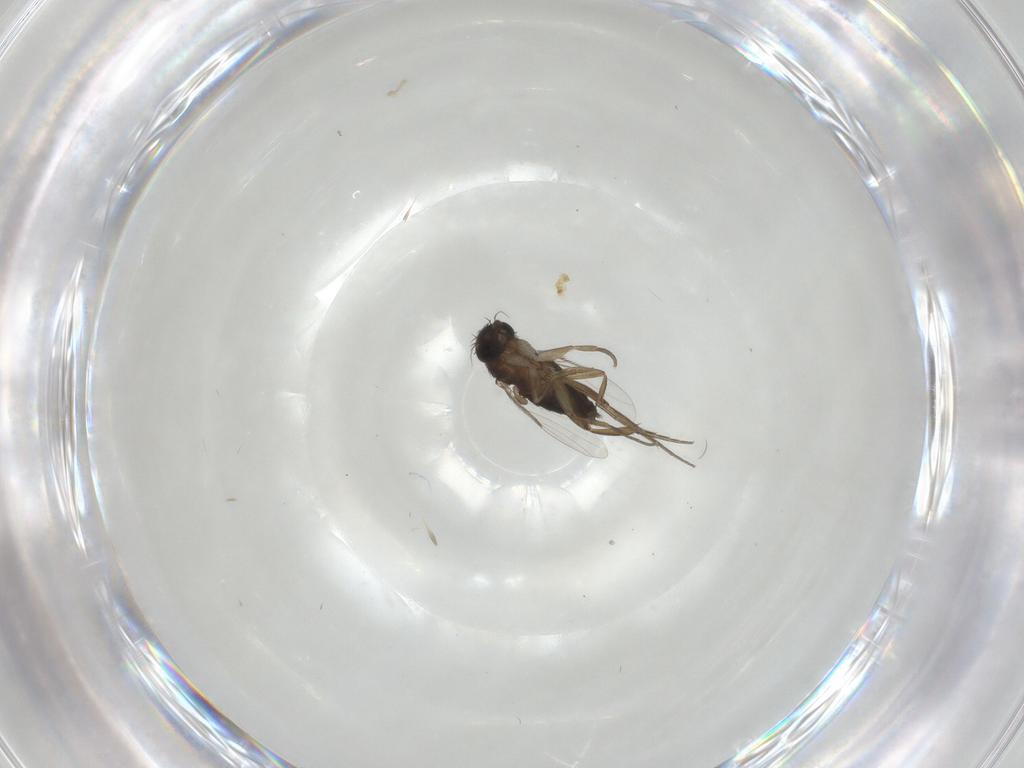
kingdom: Animalia
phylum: Arthropoda
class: Insecta
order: Diptera
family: Phoridae
